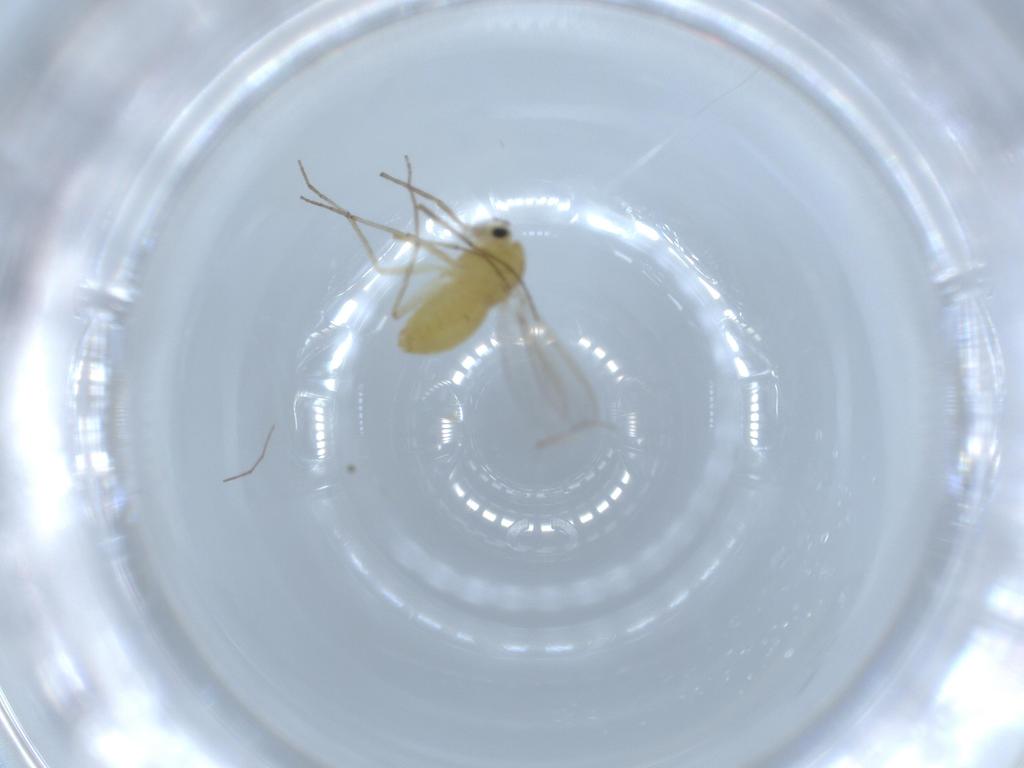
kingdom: Animalia
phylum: Arthropoda
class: Insecta
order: Diptera
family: Chironomidae
